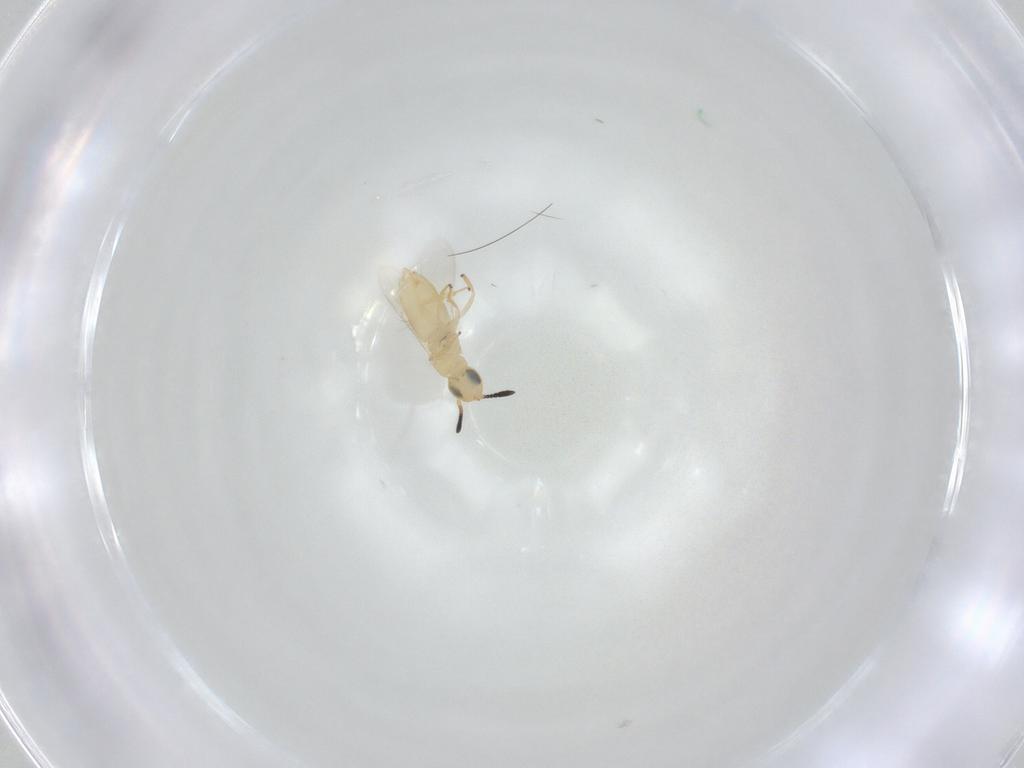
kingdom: Animalia
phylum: Arthropoda
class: Insecta
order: Hymenoptera
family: Encyrtidae
